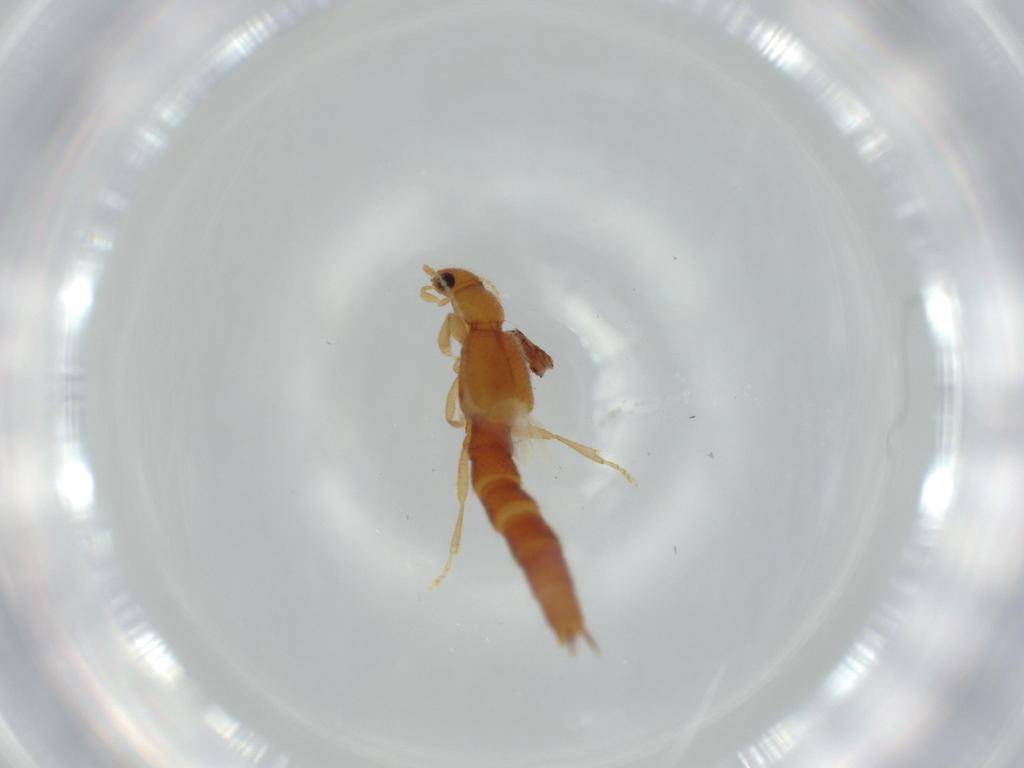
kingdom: Animalia
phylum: Arthropoda
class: Insecta
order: Coleoptera
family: Staphylinidae
